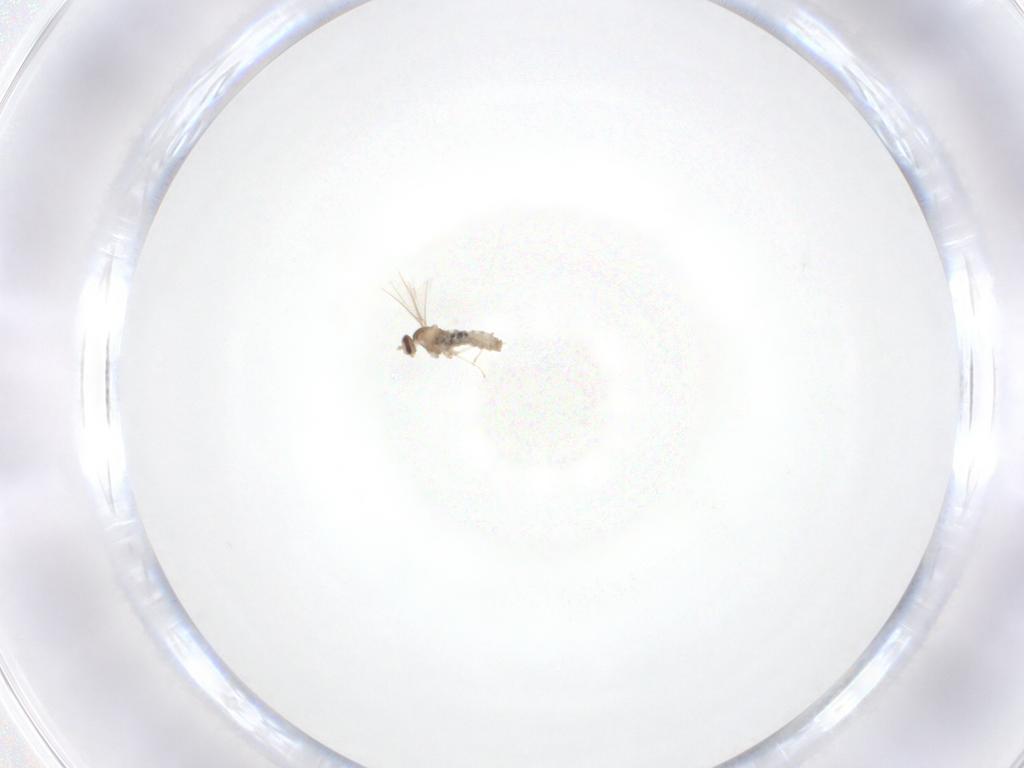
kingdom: Animalia
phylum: Arthropoda
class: Insecta
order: Diptera
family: Cecidomyiidae
